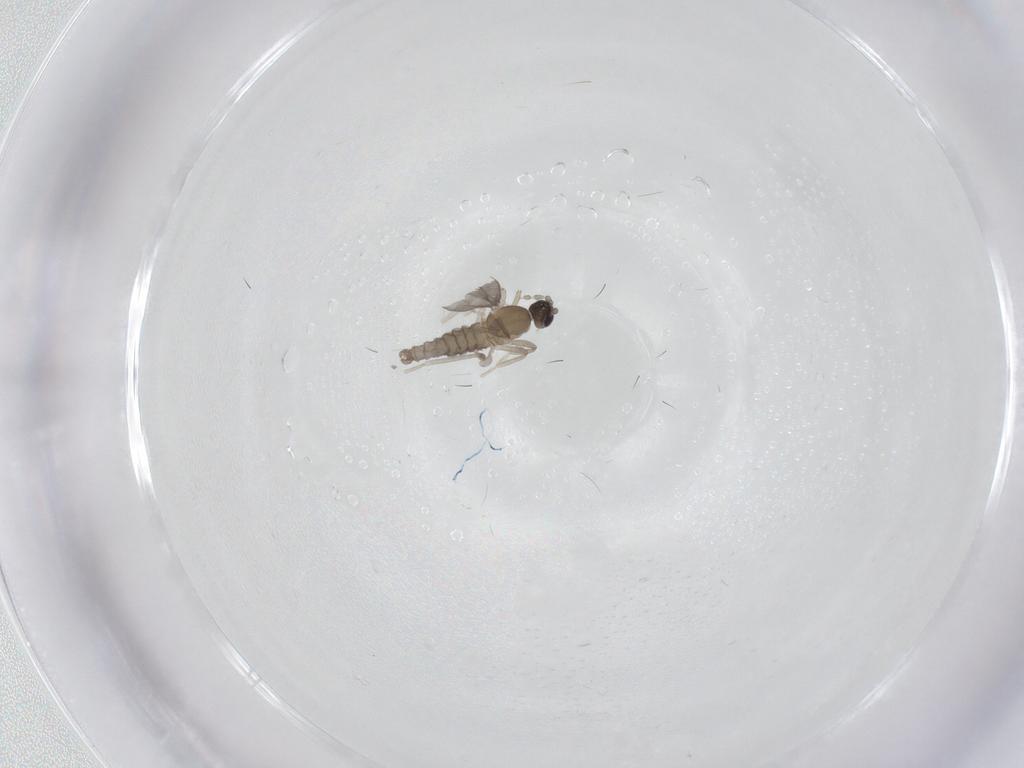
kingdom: Animalia
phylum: Arthropoda
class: Insecta
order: Diptera
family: Cecidomyiidae
